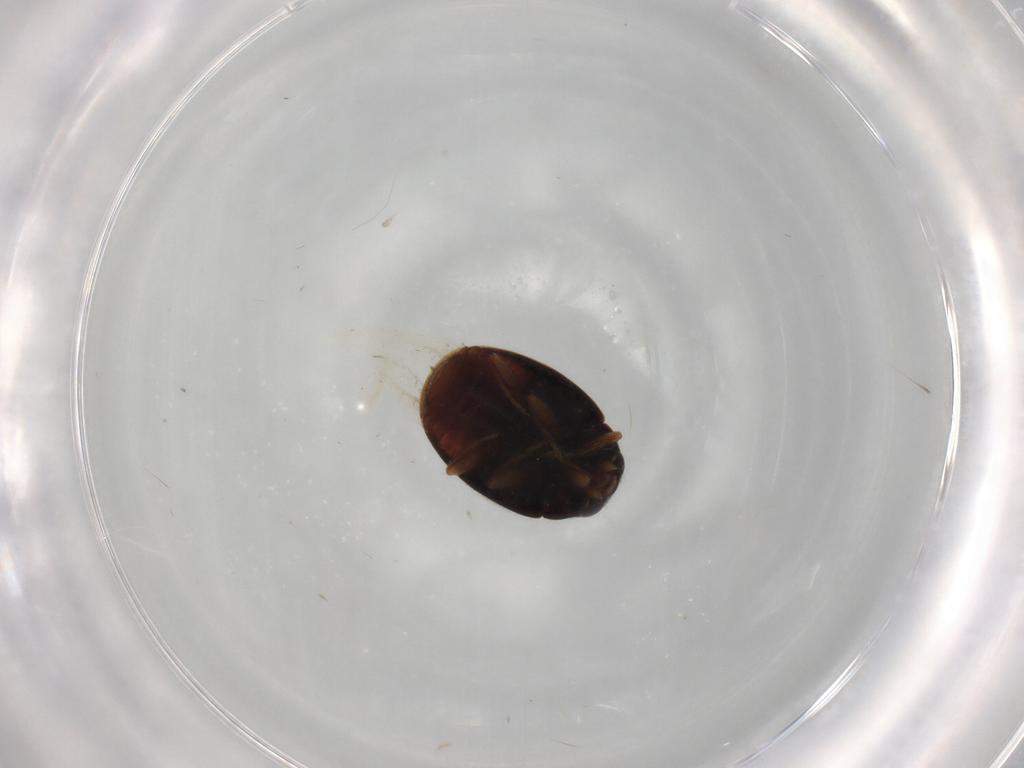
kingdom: Animalia
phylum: Arthropoda
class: Insecta
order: Coleoptera
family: Coccinellidae
